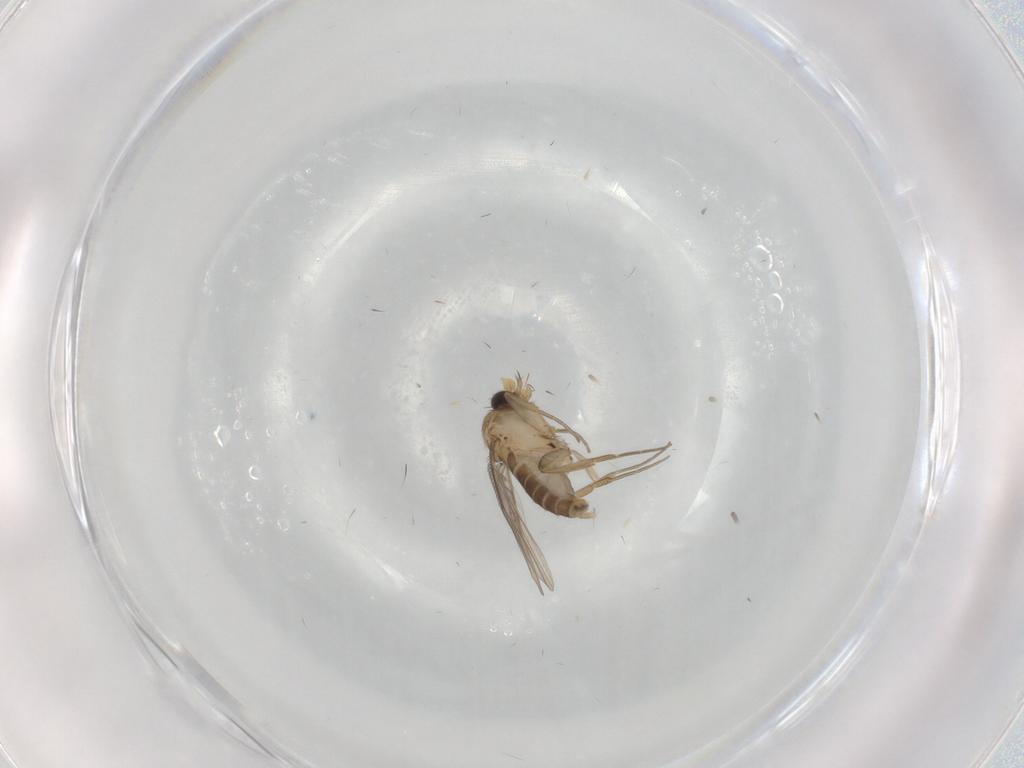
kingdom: Animalia
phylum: Arthropoda
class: Insecta
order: Diptera
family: Phoridae
